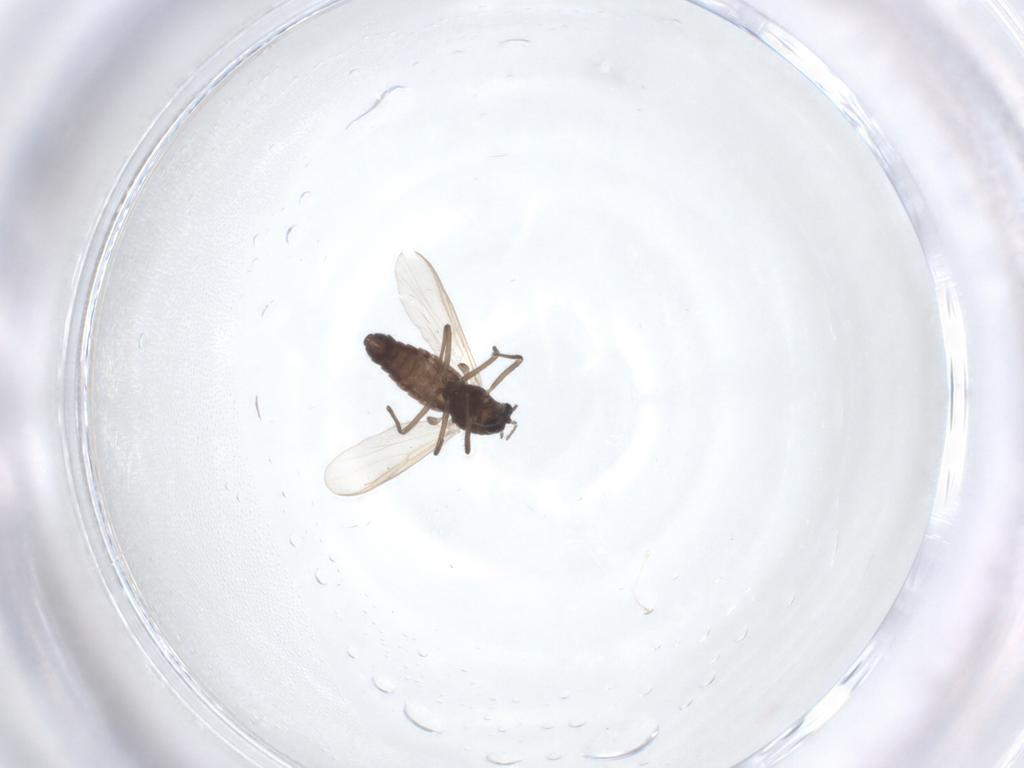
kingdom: Animalia
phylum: Arthropoda
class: Insecta
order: Diptera
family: Chironomidae
